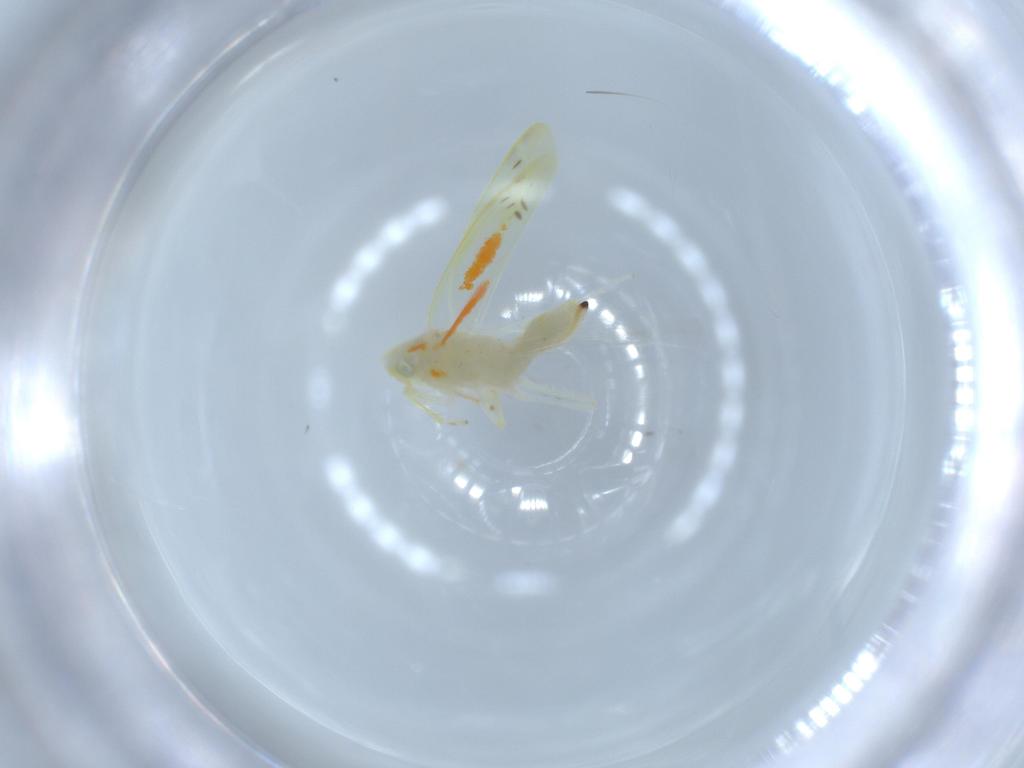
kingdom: Animalia
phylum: Arthropoda
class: Insecta
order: Hemiptera
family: Cicadellidae
